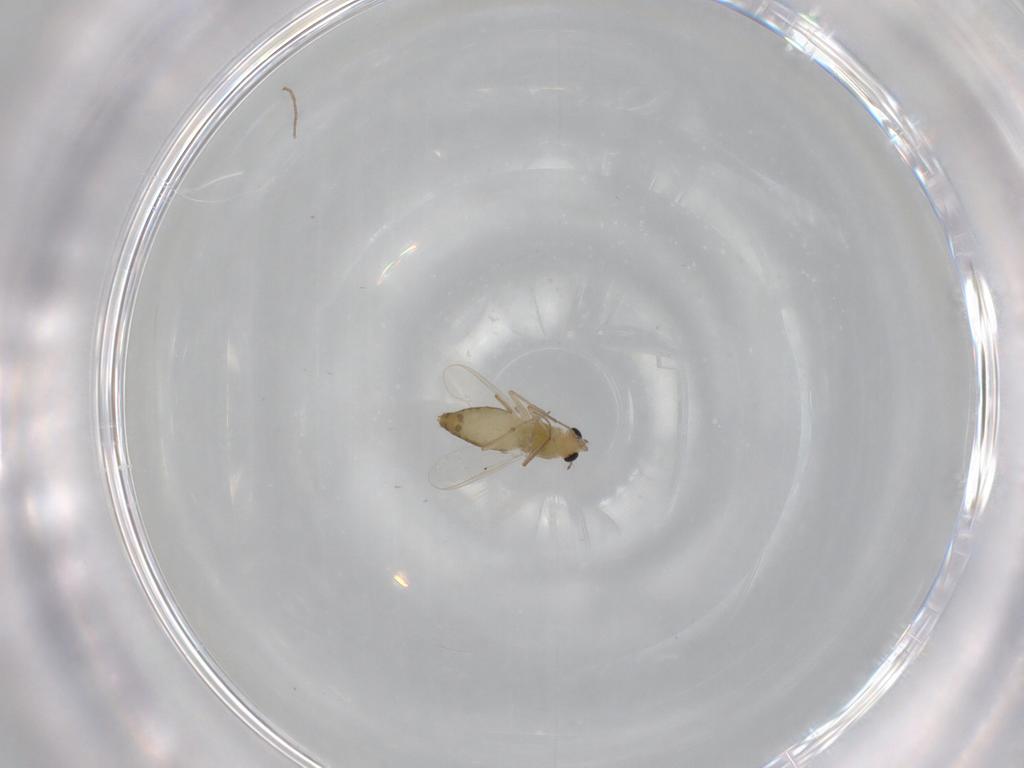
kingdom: Animalia
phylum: Arthropoda
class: Insecta
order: Diptera
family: Chironomidae
